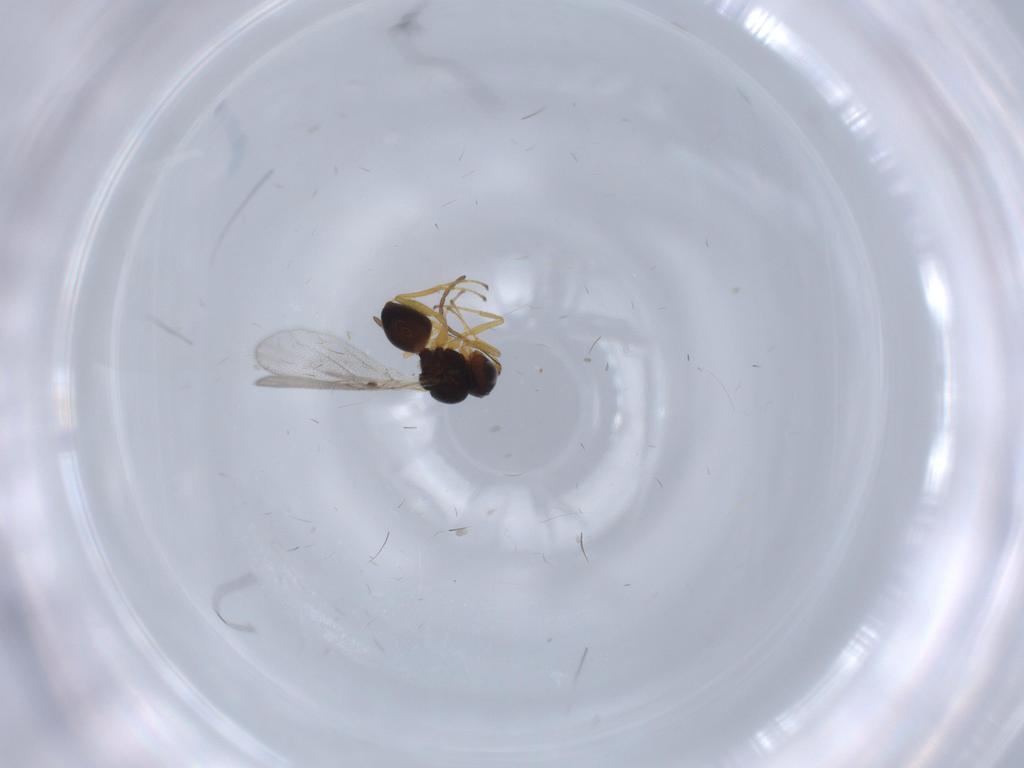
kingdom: Animalia
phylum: Arthropoda
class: Insecta
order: Hymenoptera
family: Figitidae
